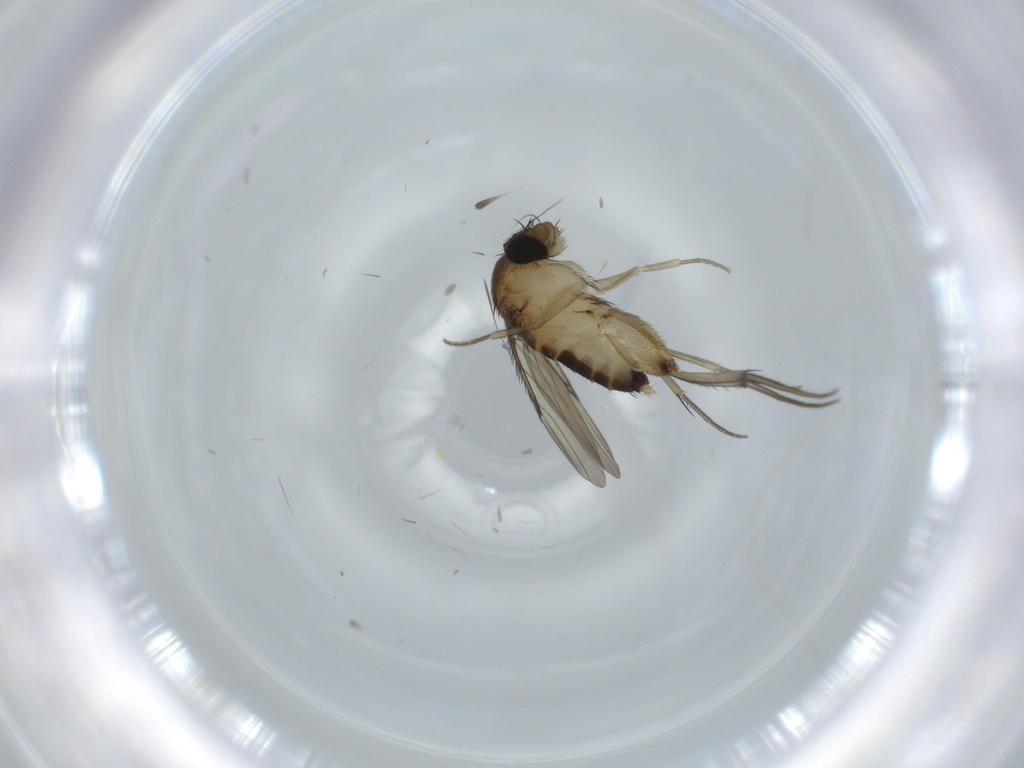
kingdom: Animalia
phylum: Arthropoda
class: Insecta
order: Diptera
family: Phoridae
